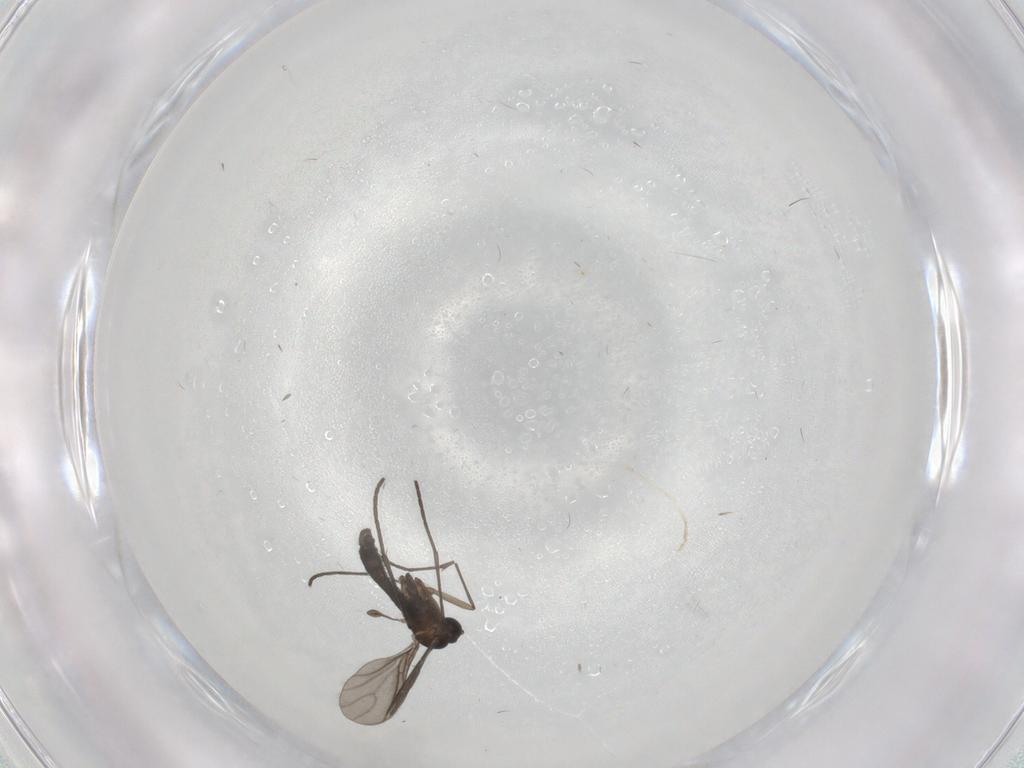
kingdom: Animalia
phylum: Arthropoda
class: Insecta
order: Diptera
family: Sciaridae
